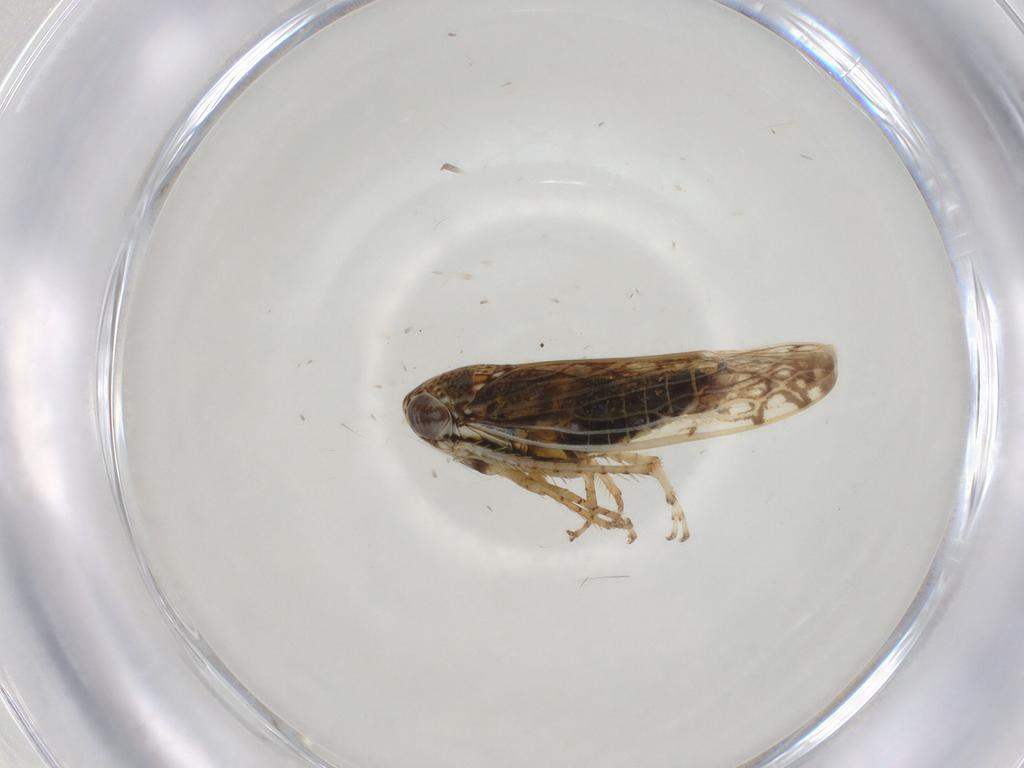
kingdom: Animalia
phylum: Arthropoda
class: Insecta
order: Hemiptera
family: Cicadellidae
